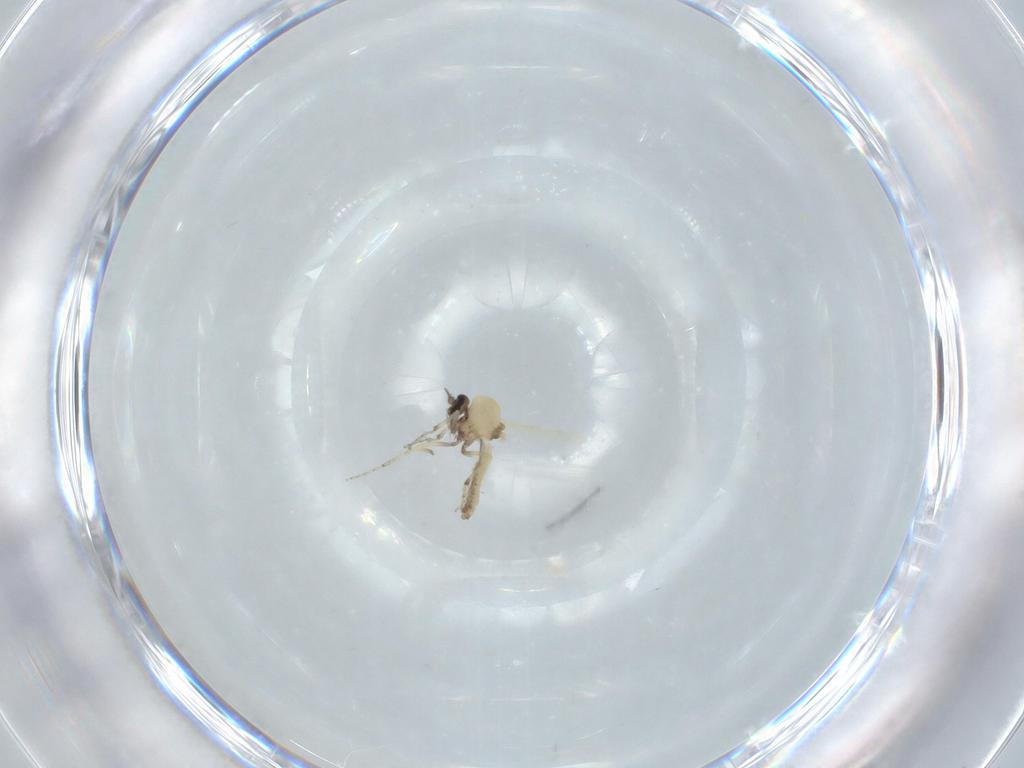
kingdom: Animalia
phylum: Arthropoda
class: Insecta
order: Diptera
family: Ceratopogonidae
